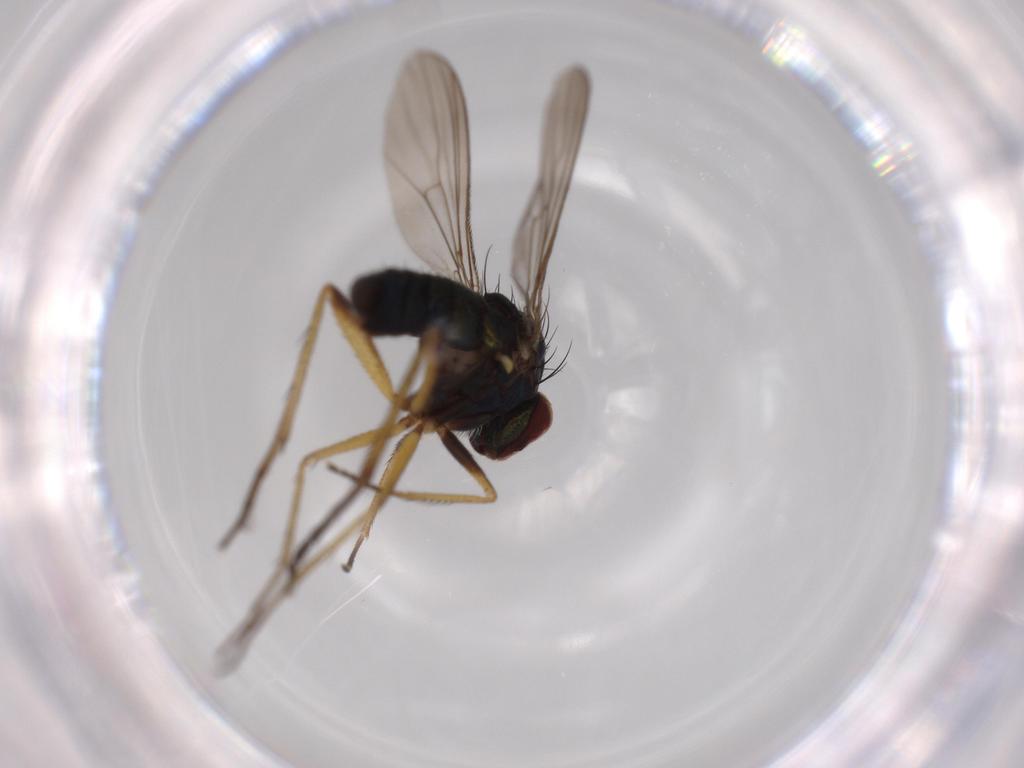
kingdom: Animalia
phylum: Arthropoda
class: Insecta
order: Diptera
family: Dolichopodidae
